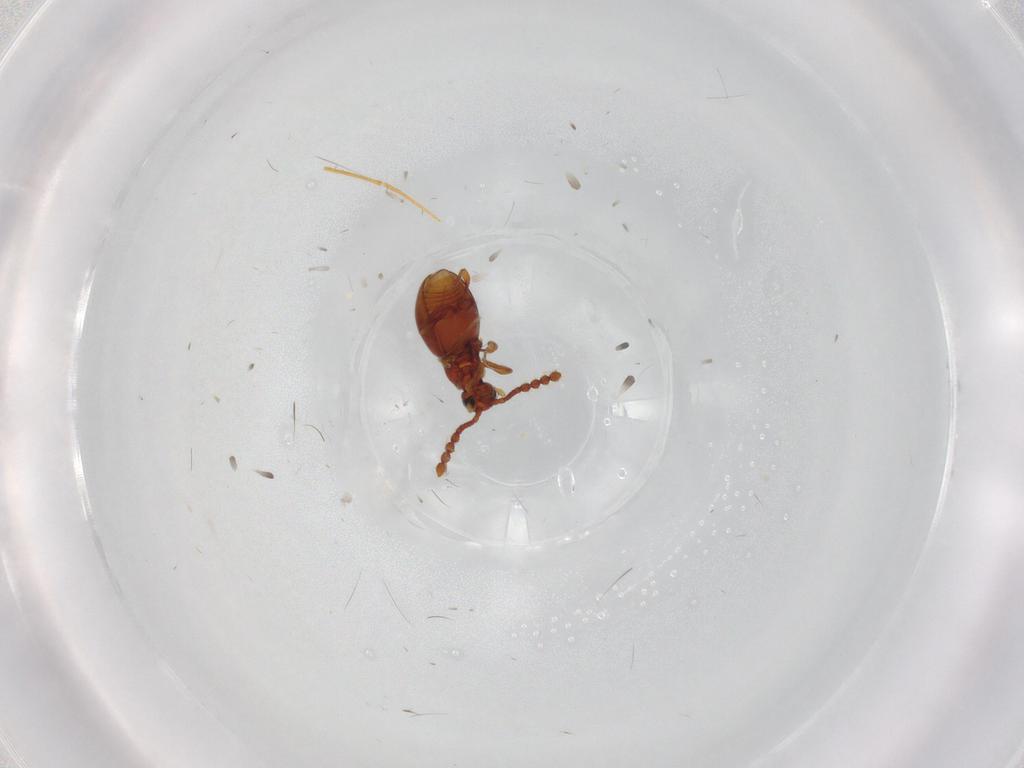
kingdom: Animalia
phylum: Arthropoda
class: Insecta
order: Coleoptera
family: Staphylinidae
